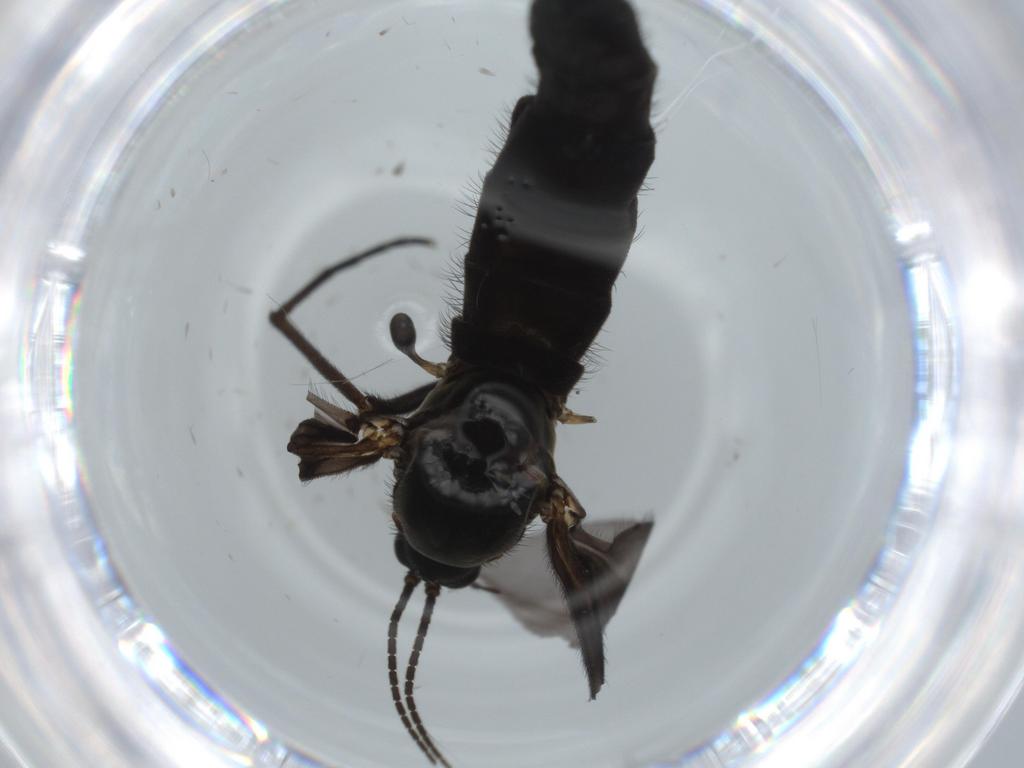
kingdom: Animalia
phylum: Arthropoda
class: Insecta
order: Diptera
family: Sciaridae
